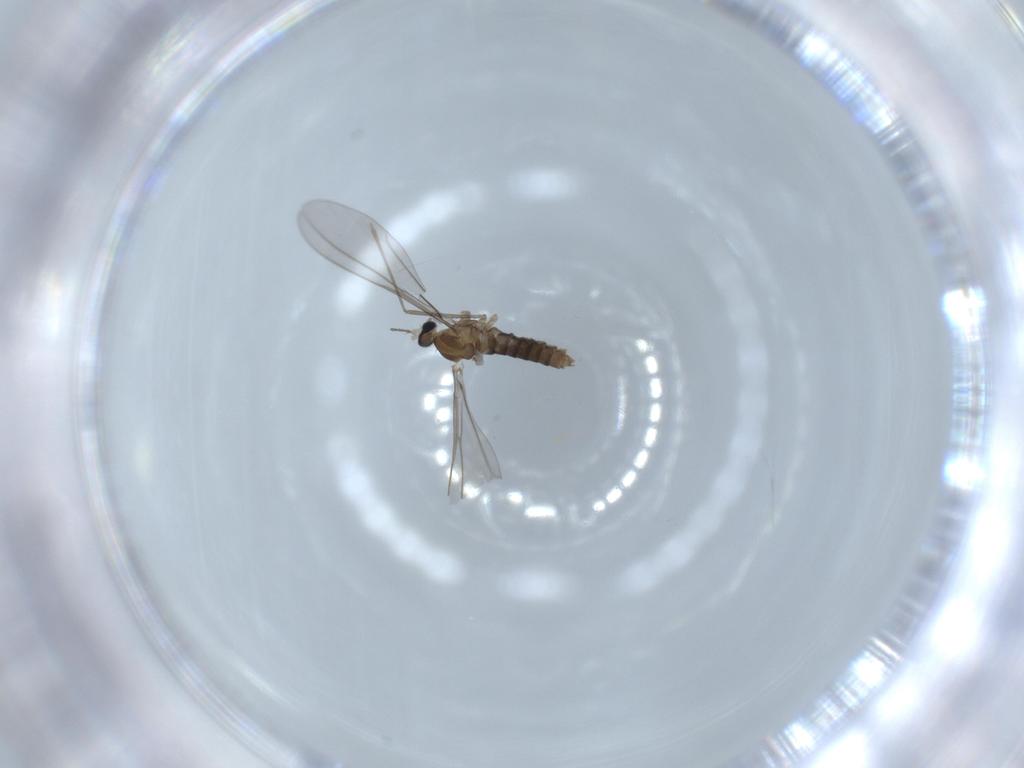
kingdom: Animalia
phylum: Arthropoda
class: Insecta
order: Diptera
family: Cecidomyiidae
